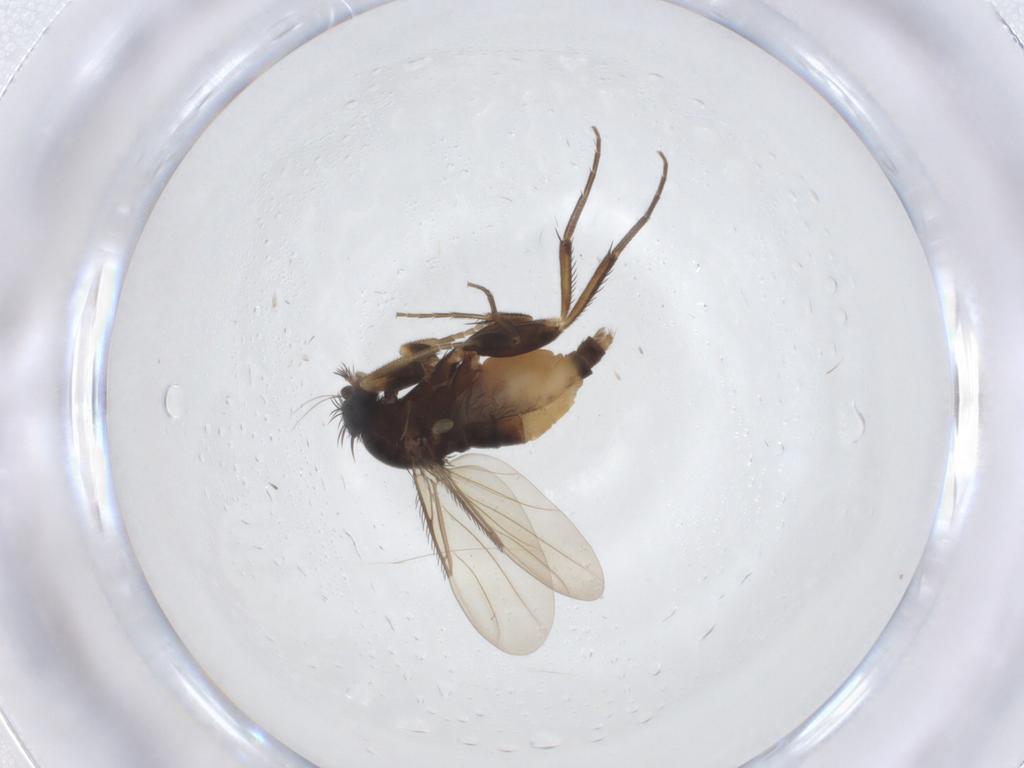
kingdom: Animalia
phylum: Arthropoda
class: Insecta
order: Diptera
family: Phoridae
